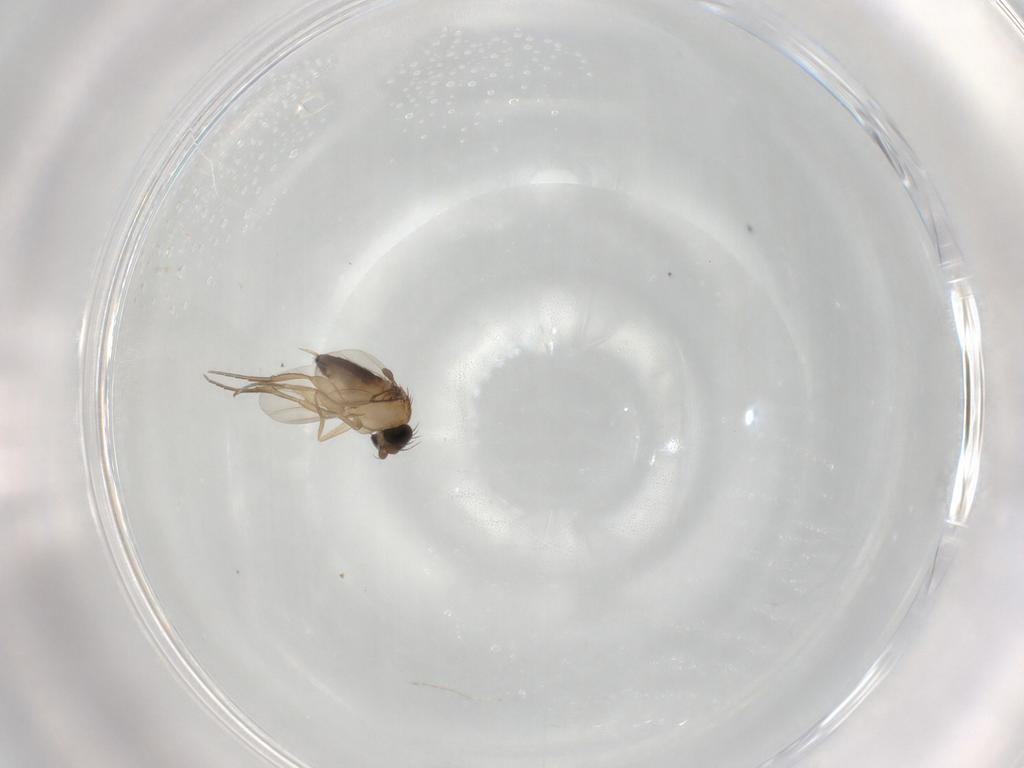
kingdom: Animalia
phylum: Arthropoda
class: Insecta
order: Diptera
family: Phoridae
